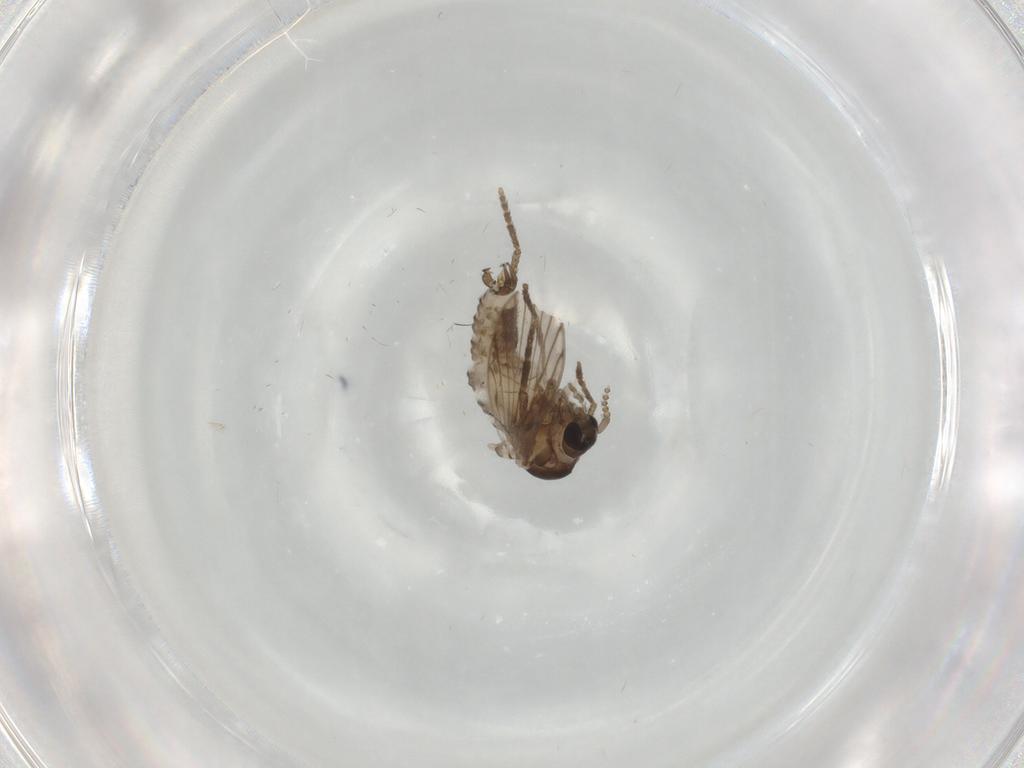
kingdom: Animalia
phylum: Arthropoda
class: Insecta
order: Diptera
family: Psychodidae
